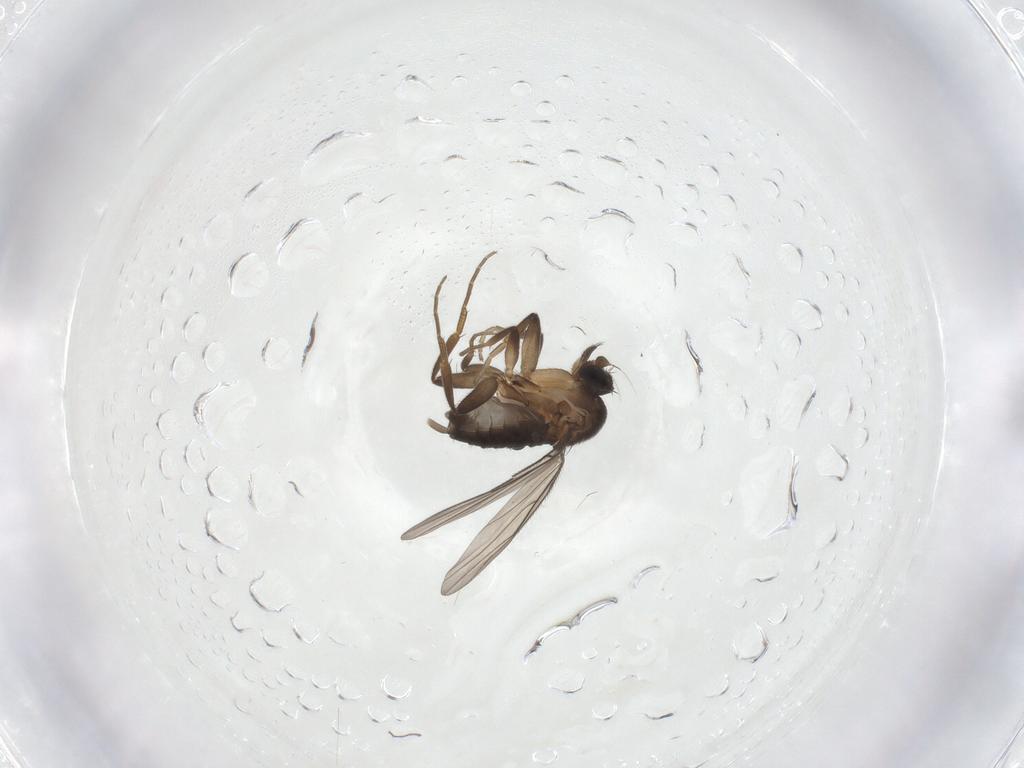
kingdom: Animalia
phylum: Arthropoda
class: Insecta
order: Diptera
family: Phoridae
